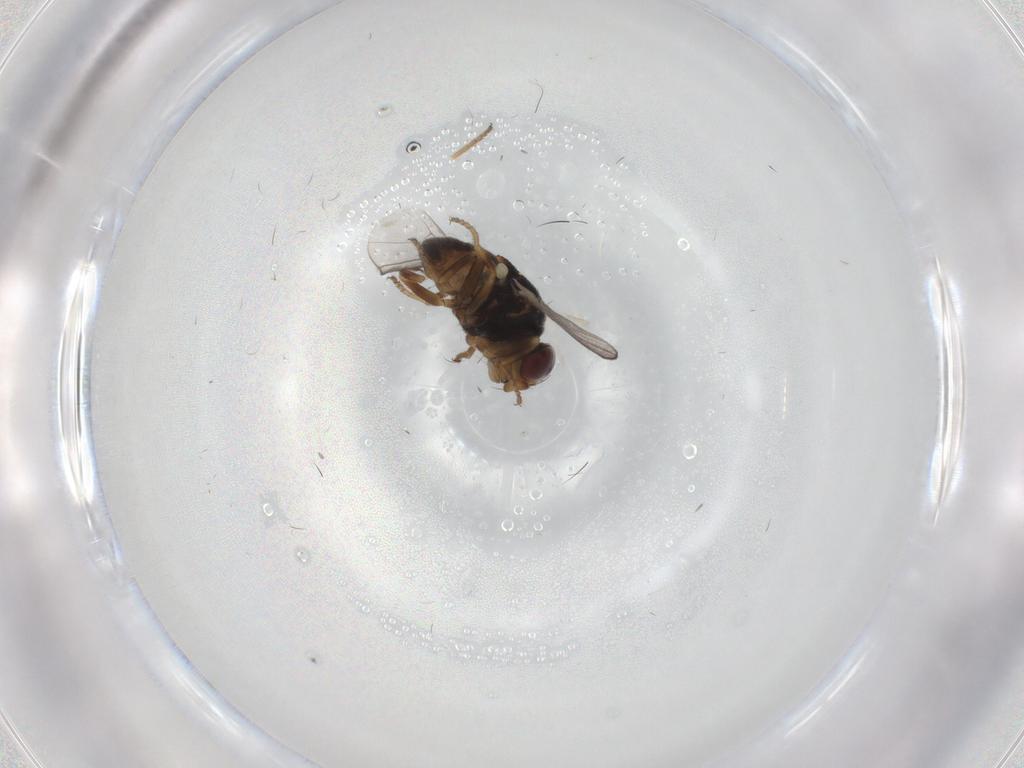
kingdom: Animalia
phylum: Arthropoda
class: Insecta
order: Diptera
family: Chloropidae
